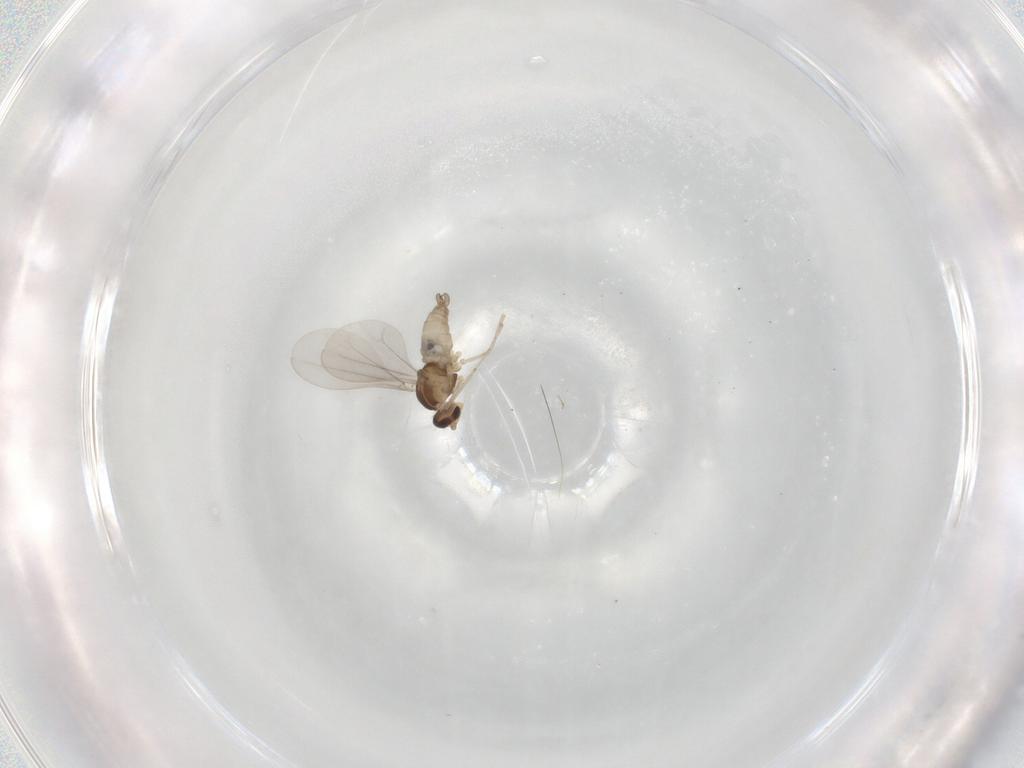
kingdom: Animalia
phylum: Arthropoda
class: Insecta
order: Diptera
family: Cecidomyiidae
